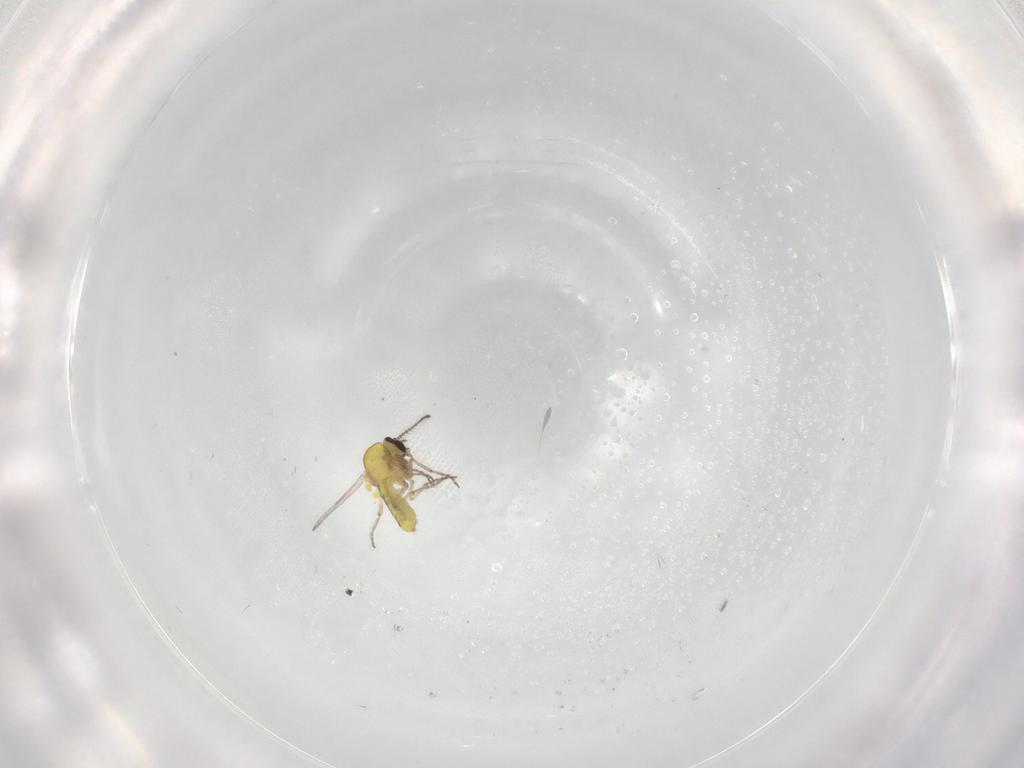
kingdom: Animalia
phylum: Arthropoda
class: Insecta
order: Diptera
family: Ceratopogonidae
